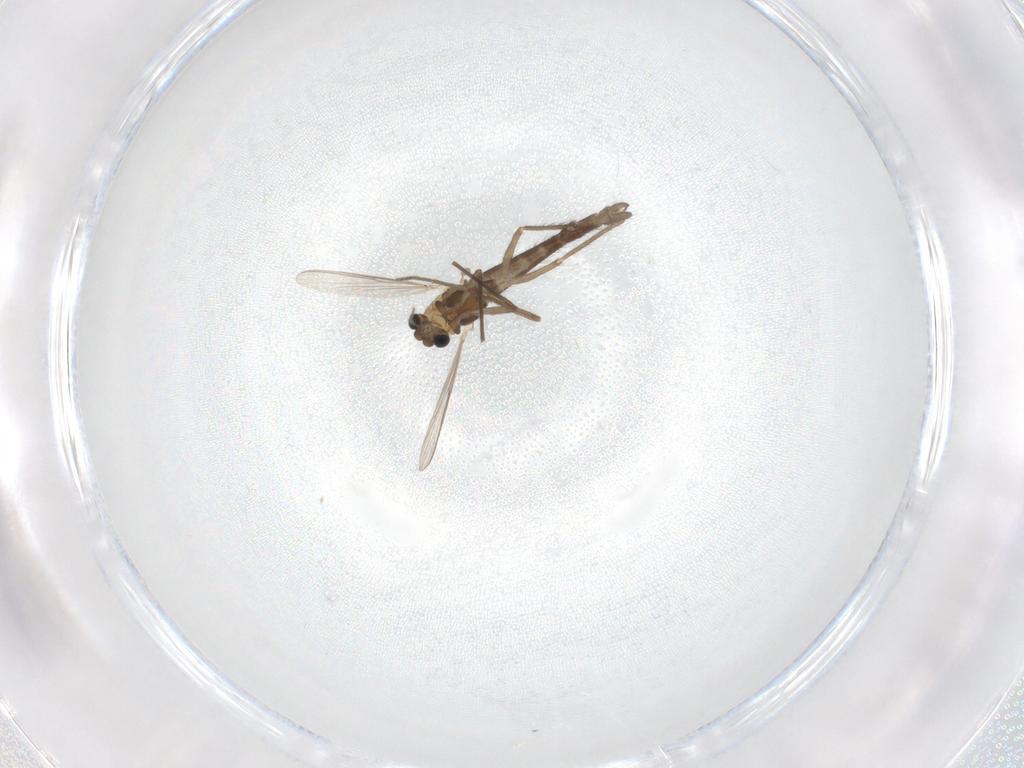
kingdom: Animalia
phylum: Arthropoda
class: Insecta
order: Diptera
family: Chironomidae
